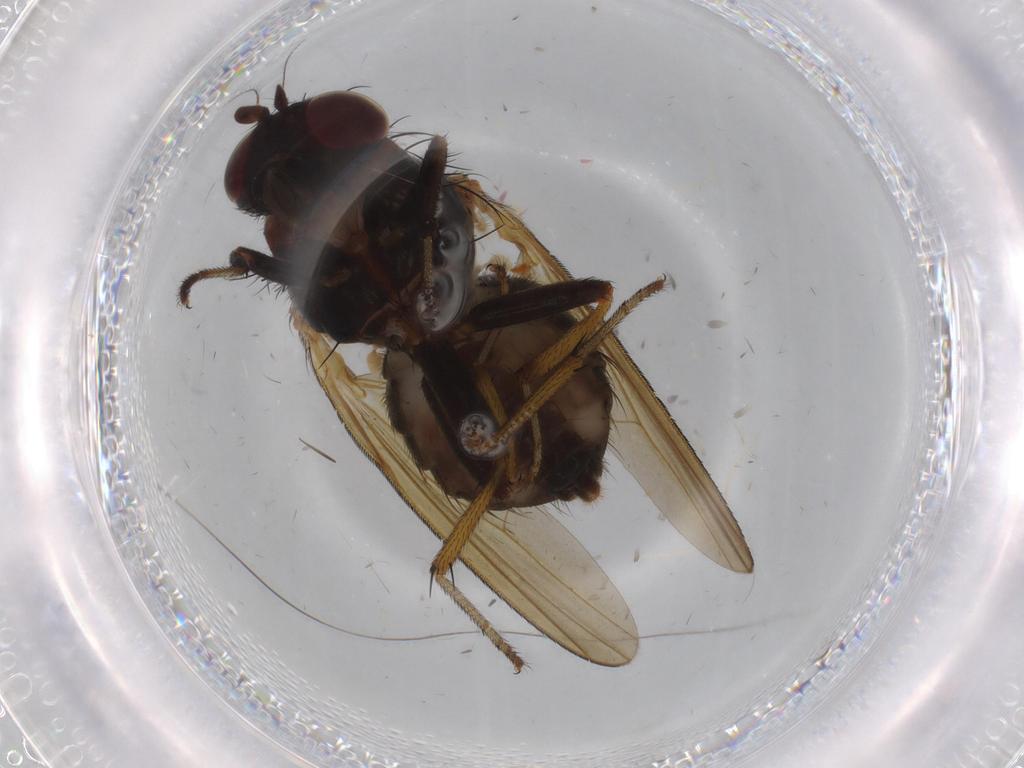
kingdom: Animalia
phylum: Arthropoda
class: Insecta
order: Diptera
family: Lauxaniidae
